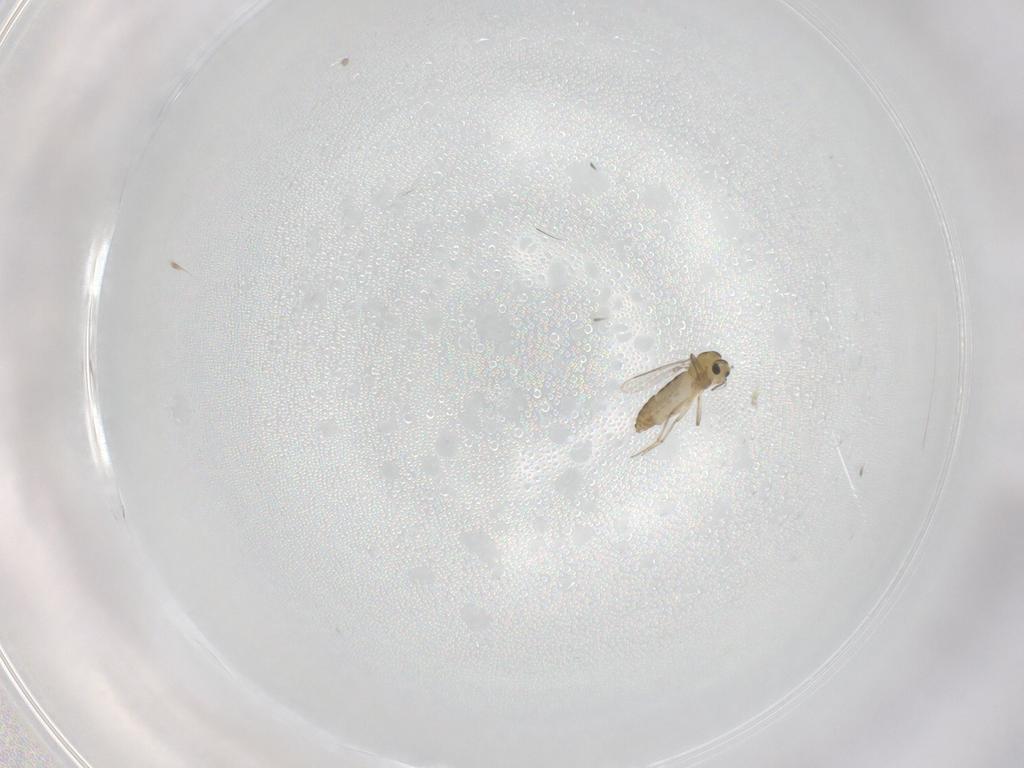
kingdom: Animalia
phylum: Arthropoda
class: Insecta
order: Diptera
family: Chironomidae
